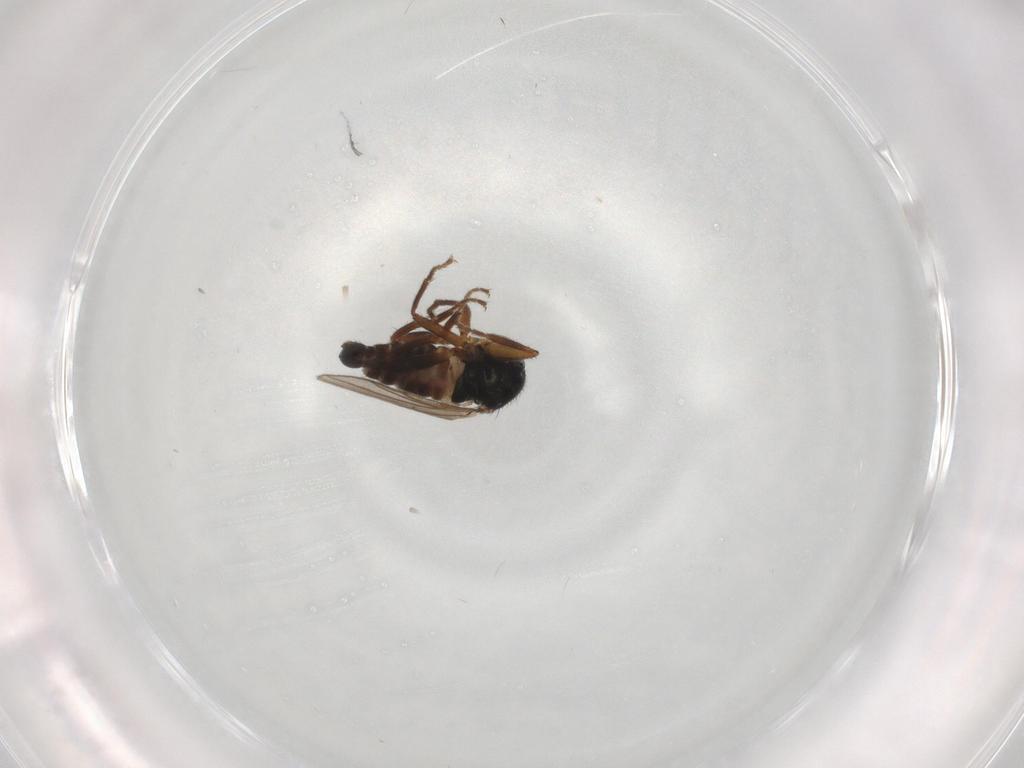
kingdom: Animalia
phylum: Arthropoda
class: Insecta
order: Diptera
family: Hybotidae
